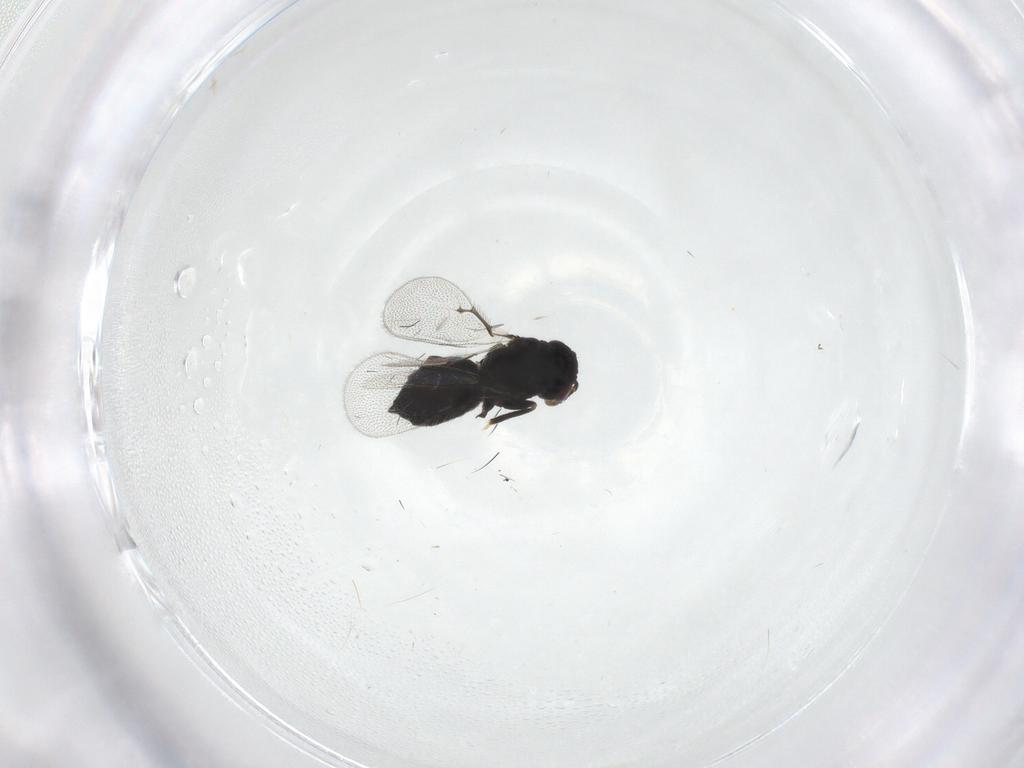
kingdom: Animalia
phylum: Arthropoda
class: Insecta
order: Hymenoptera
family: Eulophidae
